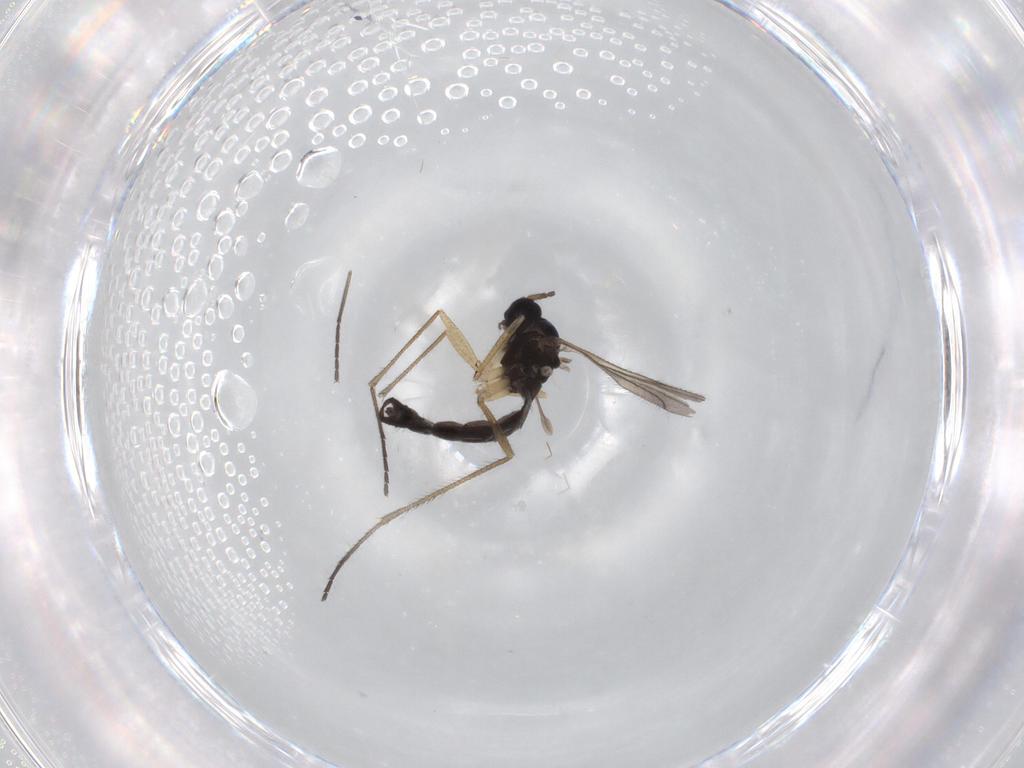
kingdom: Animalia
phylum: Arthropoda
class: Insecta
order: Diptera
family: Sciaridae
